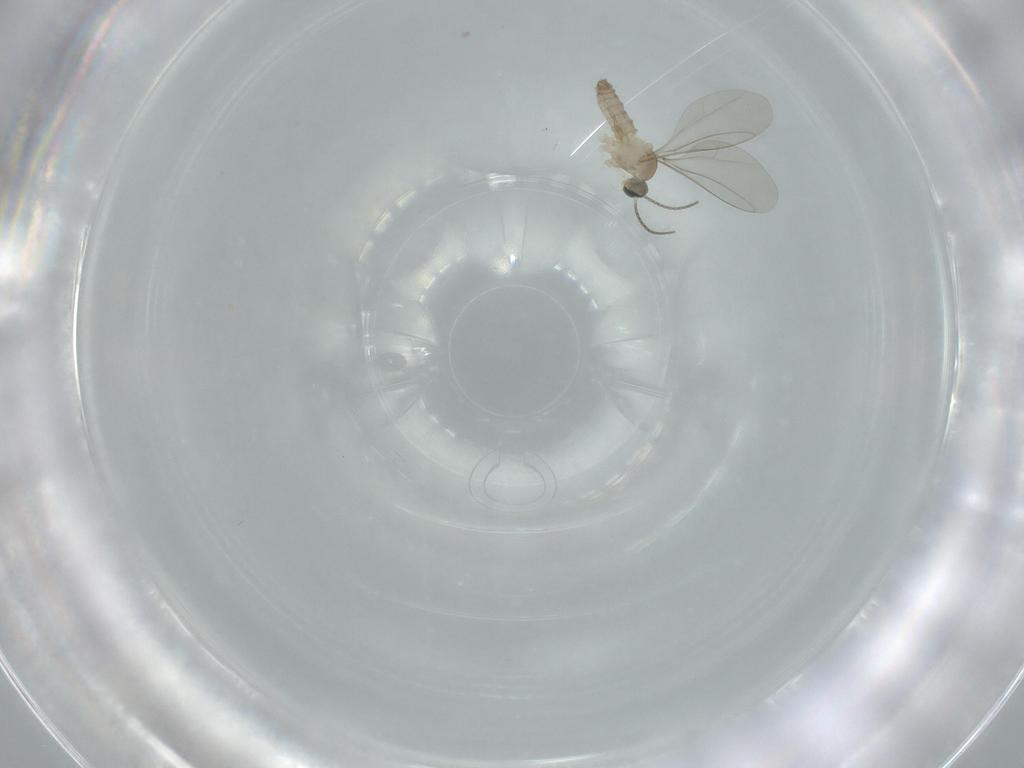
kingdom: Animalia
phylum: Arthropoda
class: Insecta
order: Diptera
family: Cecidomyiidae
